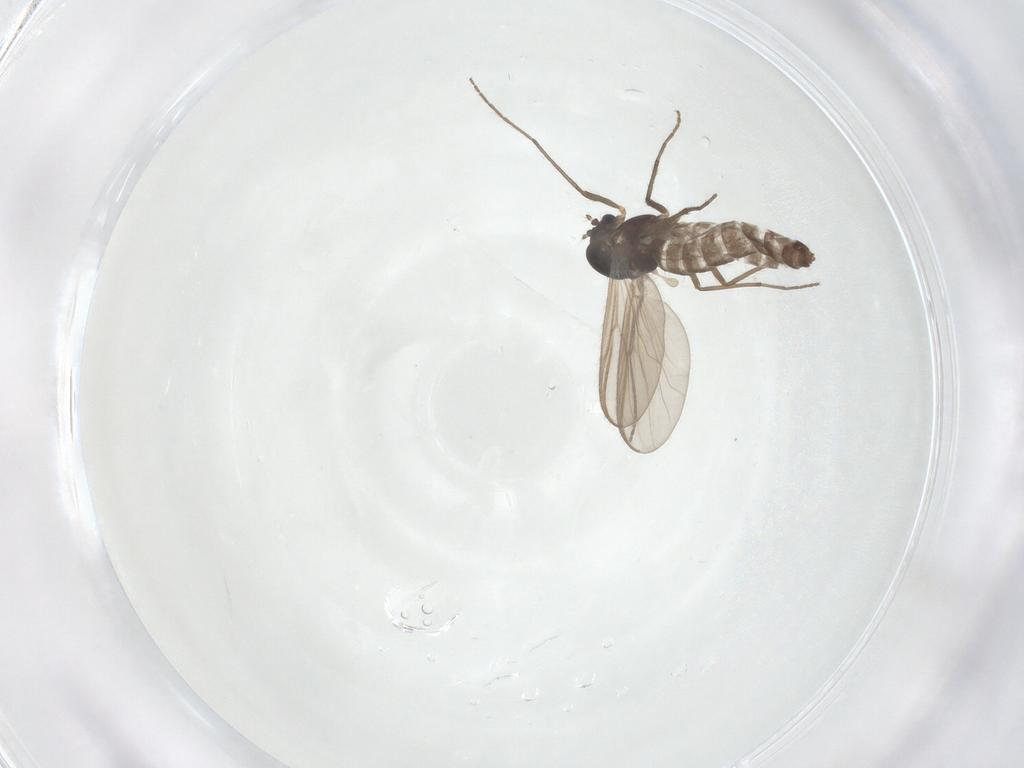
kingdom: Animalia
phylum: Arthropoda
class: Insecta
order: Diptera
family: Chironomidae
